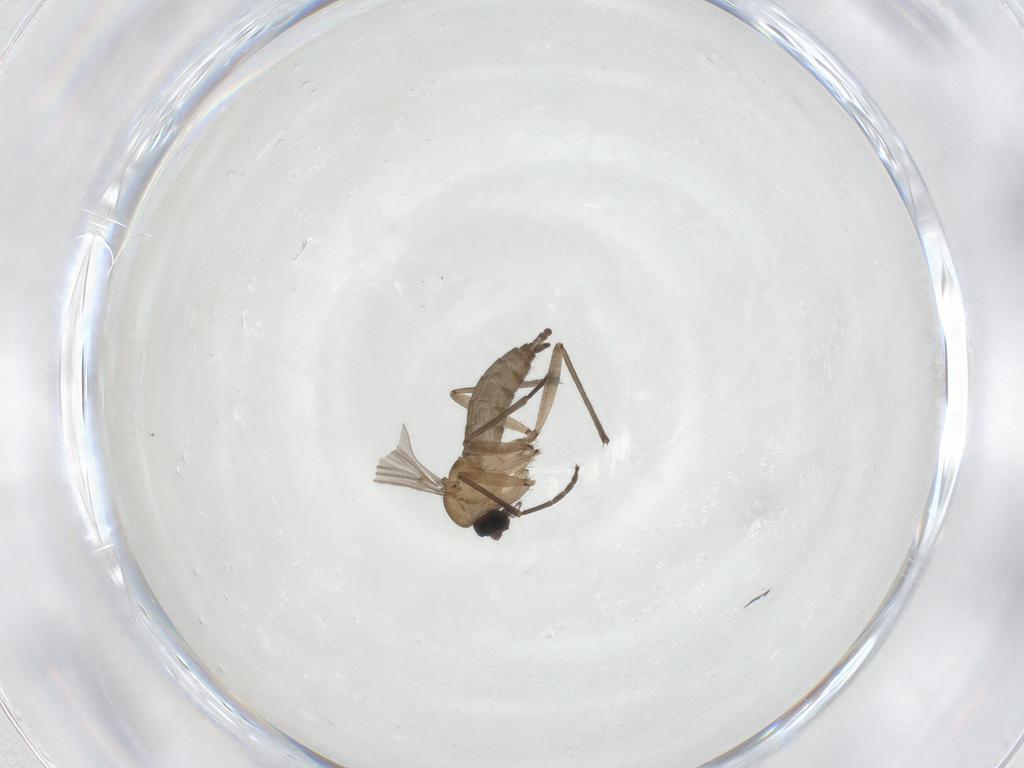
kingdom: Animalia
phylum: Arthropoda
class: Insecta
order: Diptera
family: Sciaridae
